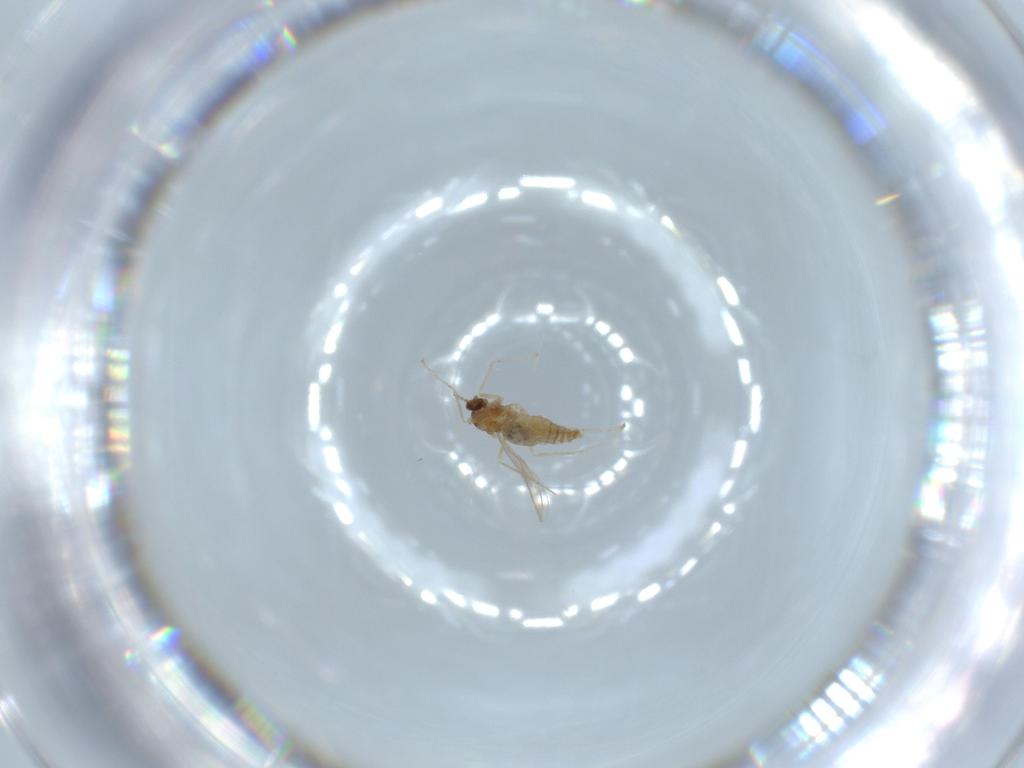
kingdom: Animalia
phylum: Arthropoda
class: Insecta
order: Diptera
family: Cecidomyiidae
